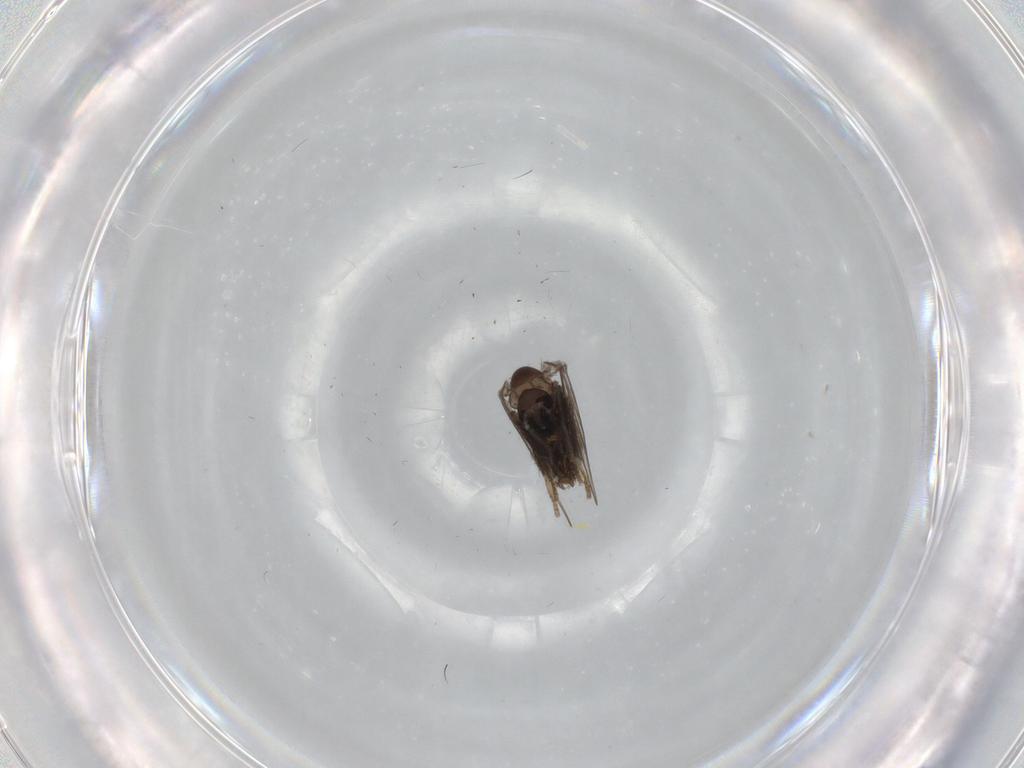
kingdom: Animalia
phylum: Arthropoda
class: Insecta
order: Diptera
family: Psychodidae
